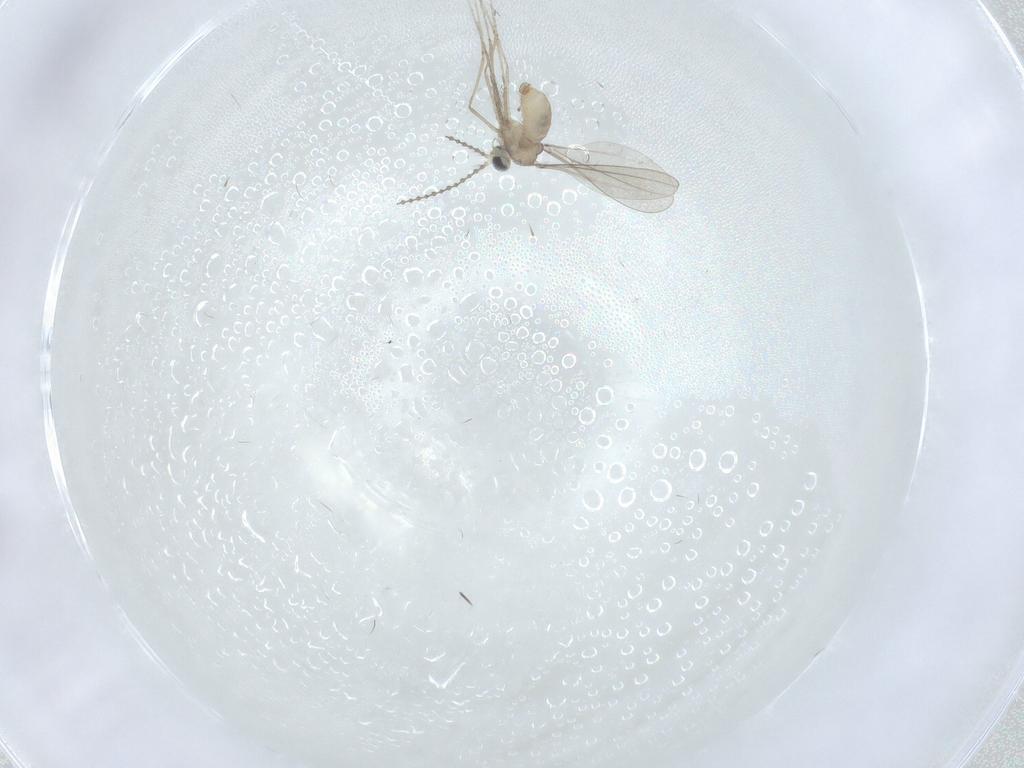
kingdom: Animalia
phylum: Arthropoda
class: Insecta
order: Diptera
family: Cecidomyiidae
